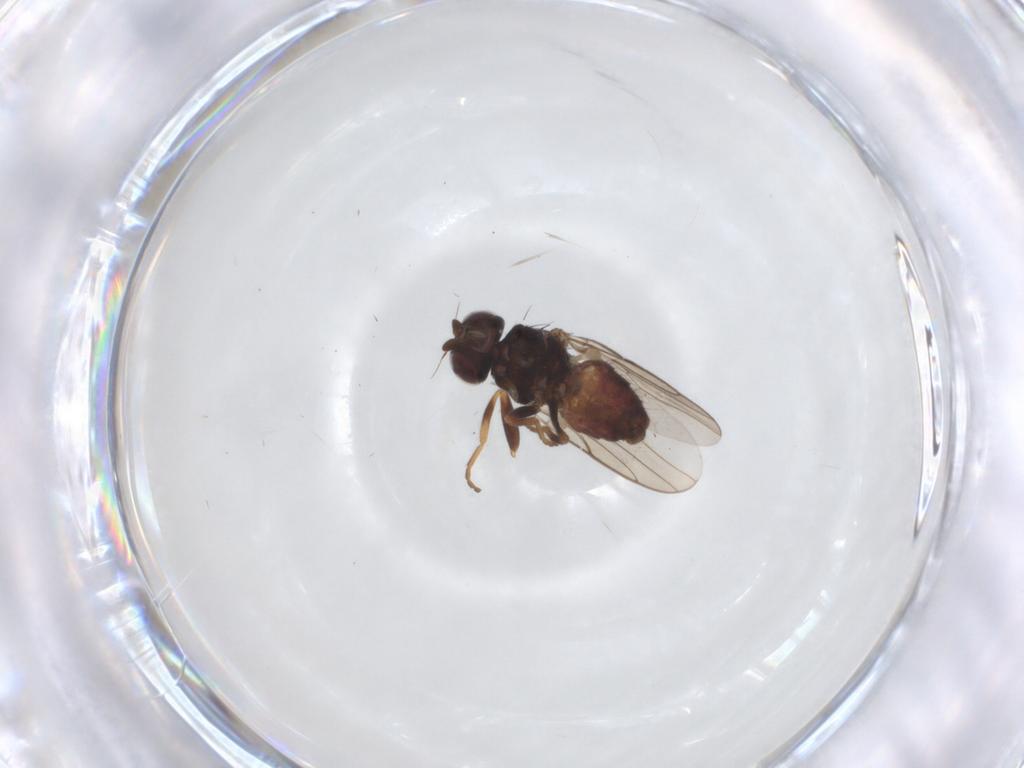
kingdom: Animalia
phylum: Arthropoda
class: Insecta
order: Diptera
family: Chloropidae
